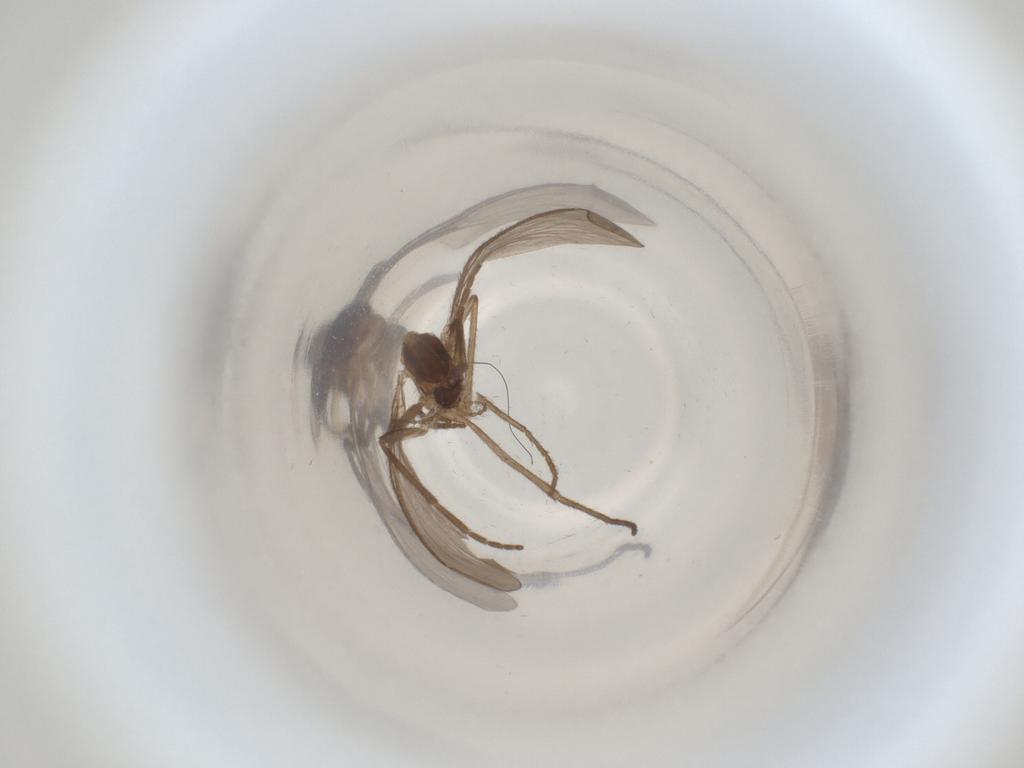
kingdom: Animalia
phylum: Arthropoda
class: Insecta
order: Diptera
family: Cecidomyiidae
